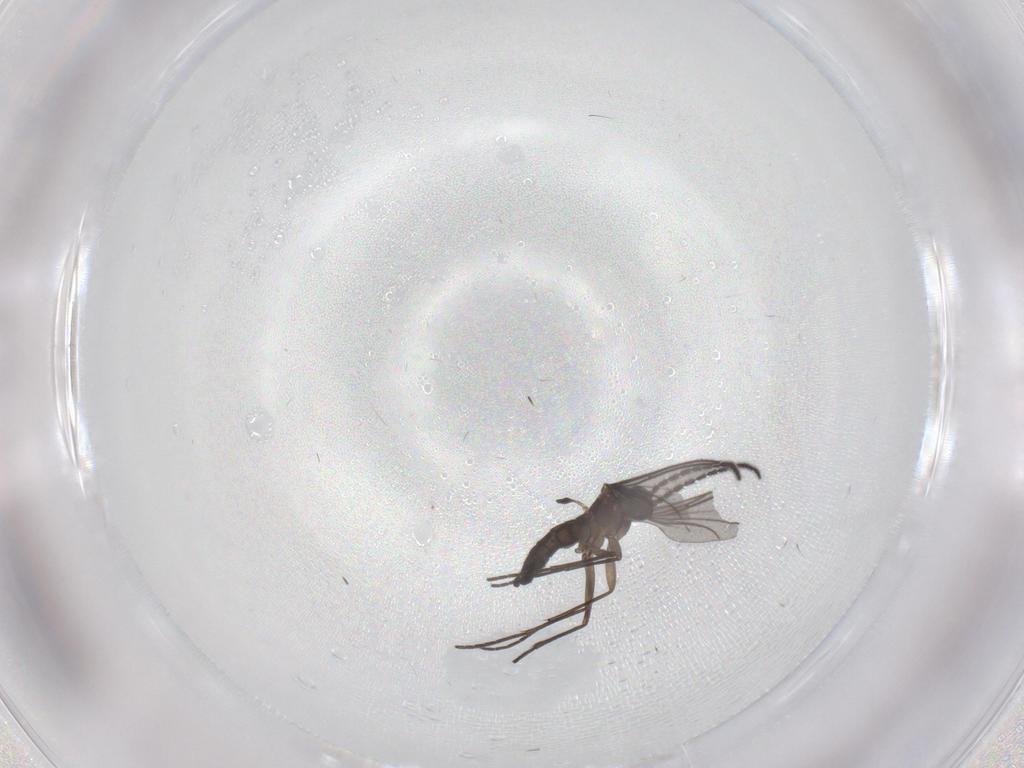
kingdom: Animalia
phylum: Arthropoda
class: Insecta
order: Diptera
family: Sciaridae
